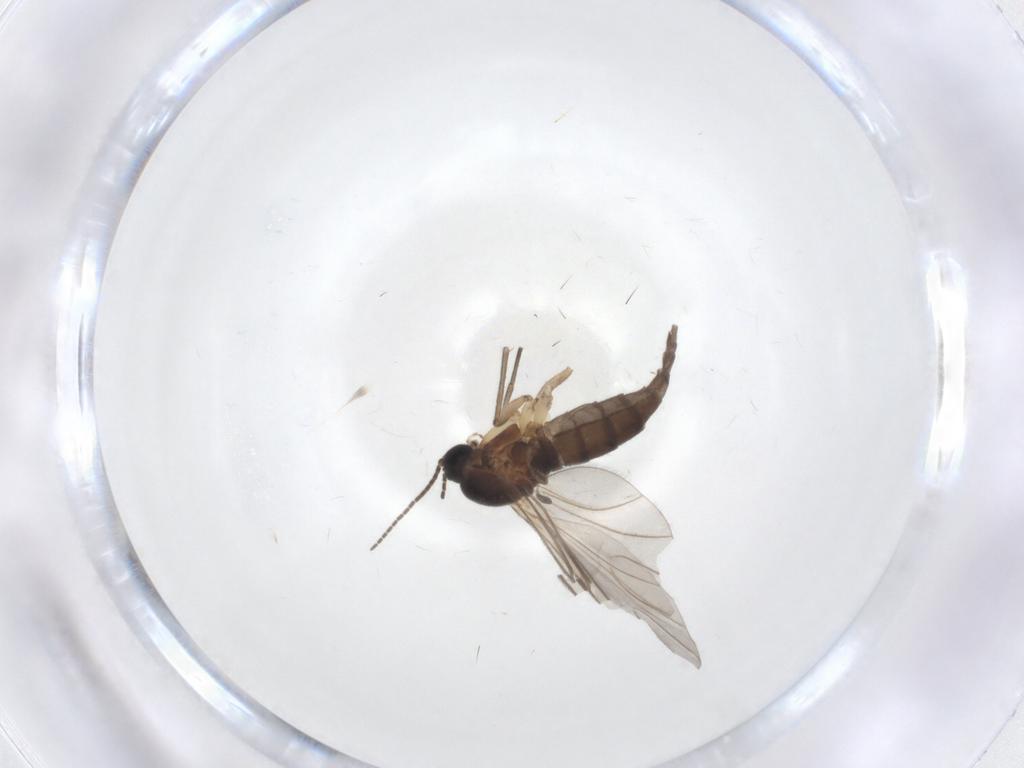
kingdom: Animalia
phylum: Arthropoda
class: Insecta
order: Diptera
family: Sciaridae
